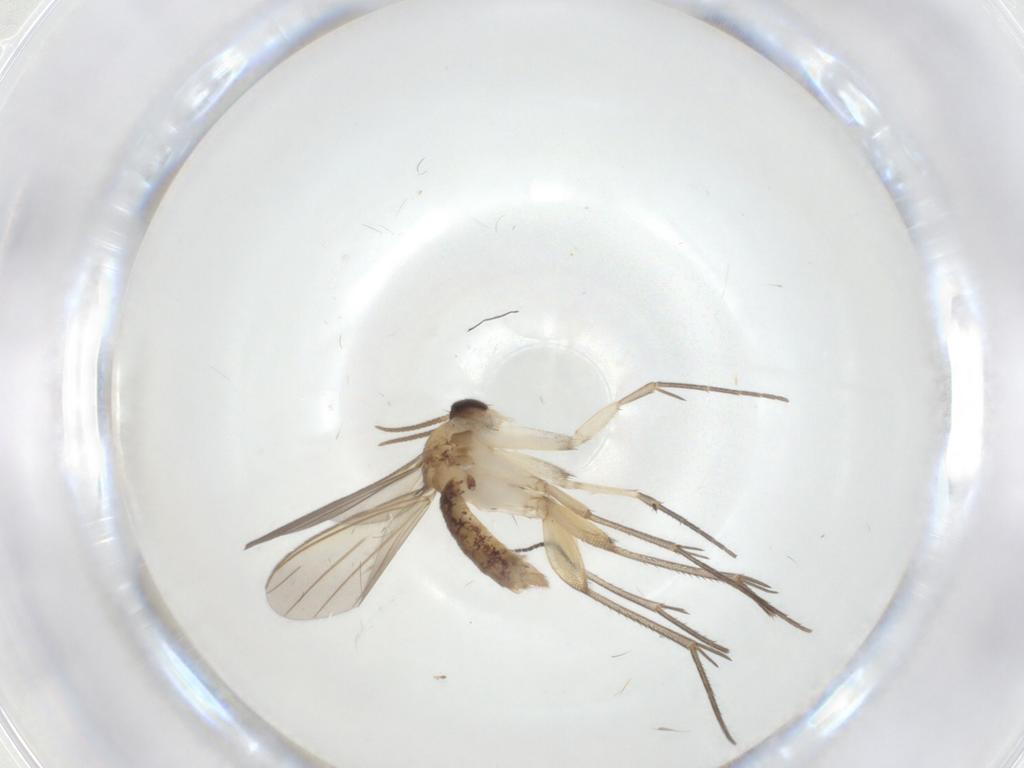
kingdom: Animalia
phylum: Arthropoda
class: Insecta
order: Diptera
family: Mycetophilidae
